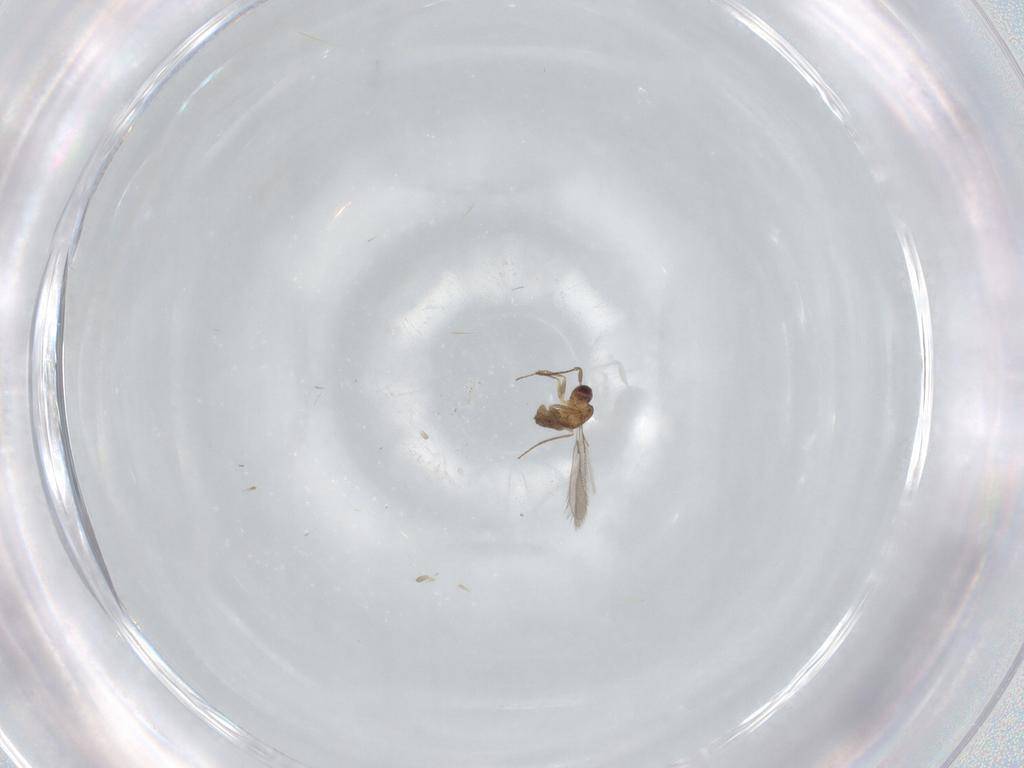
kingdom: Animalia
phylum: Arthropoda
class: Insecta
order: Hymenoptera
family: Mymaridae
